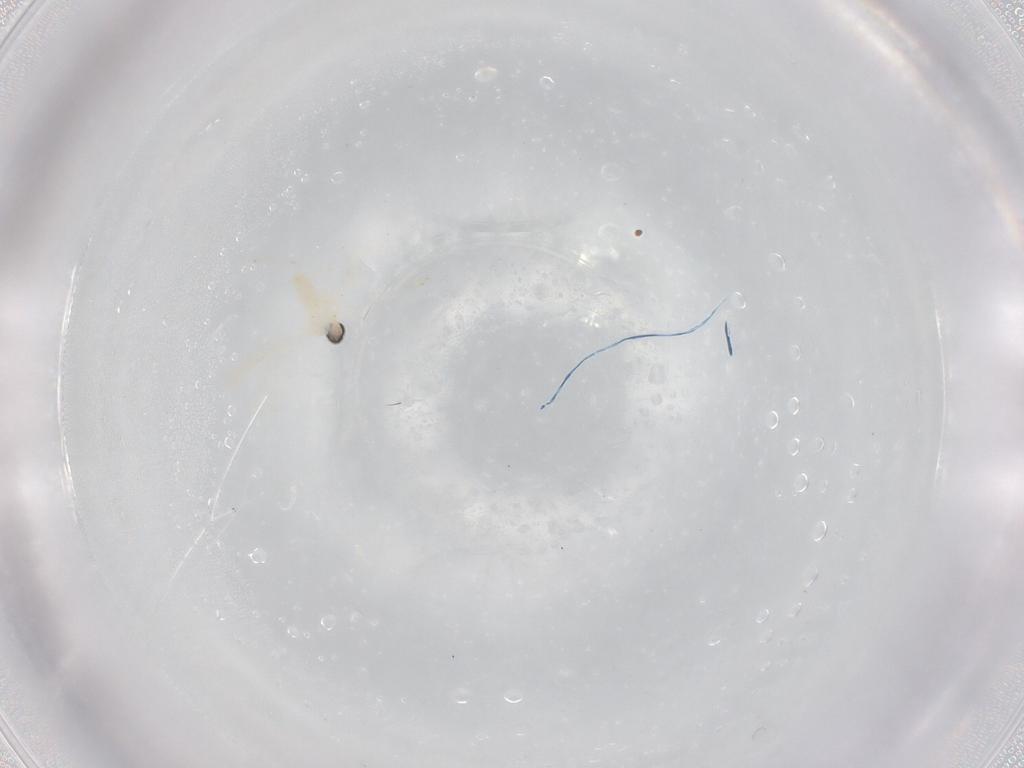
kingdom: Animalia
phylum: Arthropoda
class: Insecta
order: Diptera
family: Cecidomyiidae
